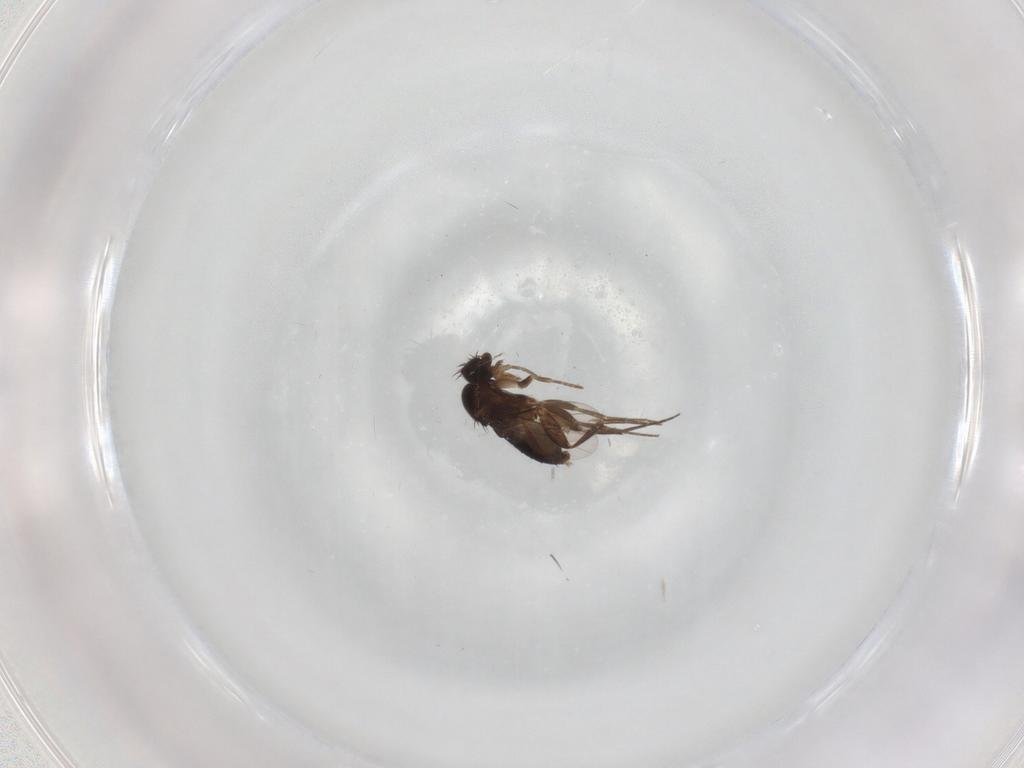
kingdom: Animalia
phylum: Arthropoda
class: Insecta
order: Diptera
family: Phoridae
